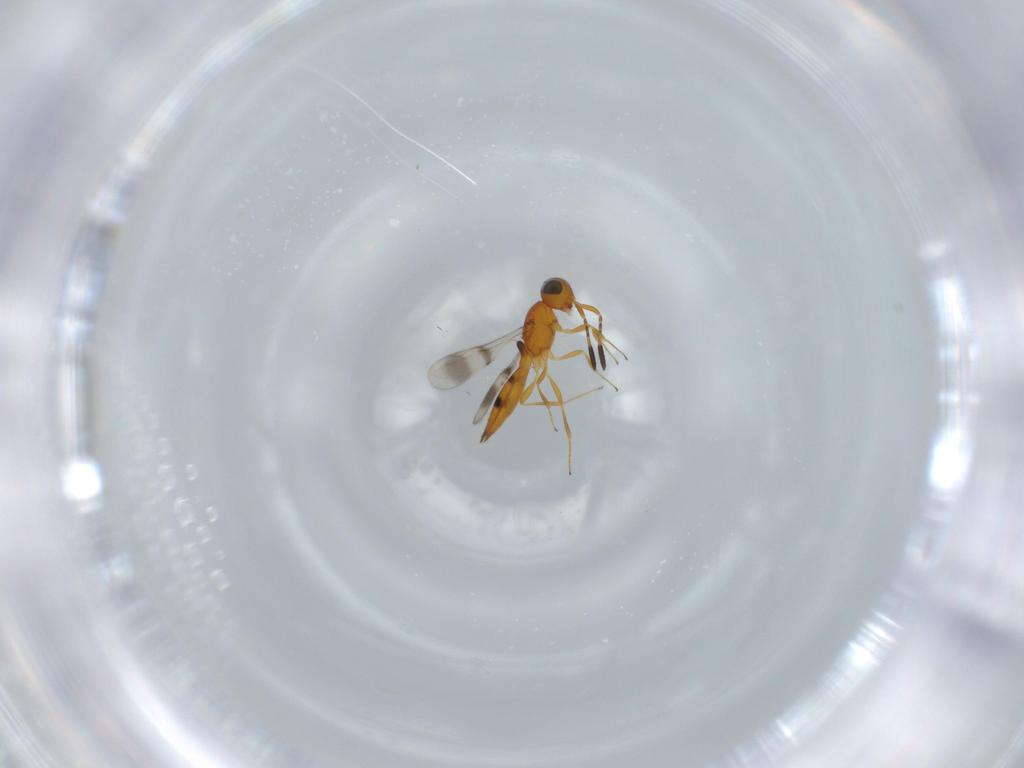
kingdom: Animalia
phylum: Arthropoda
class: Insecta
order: Hymenoptera
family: Scelionidae
